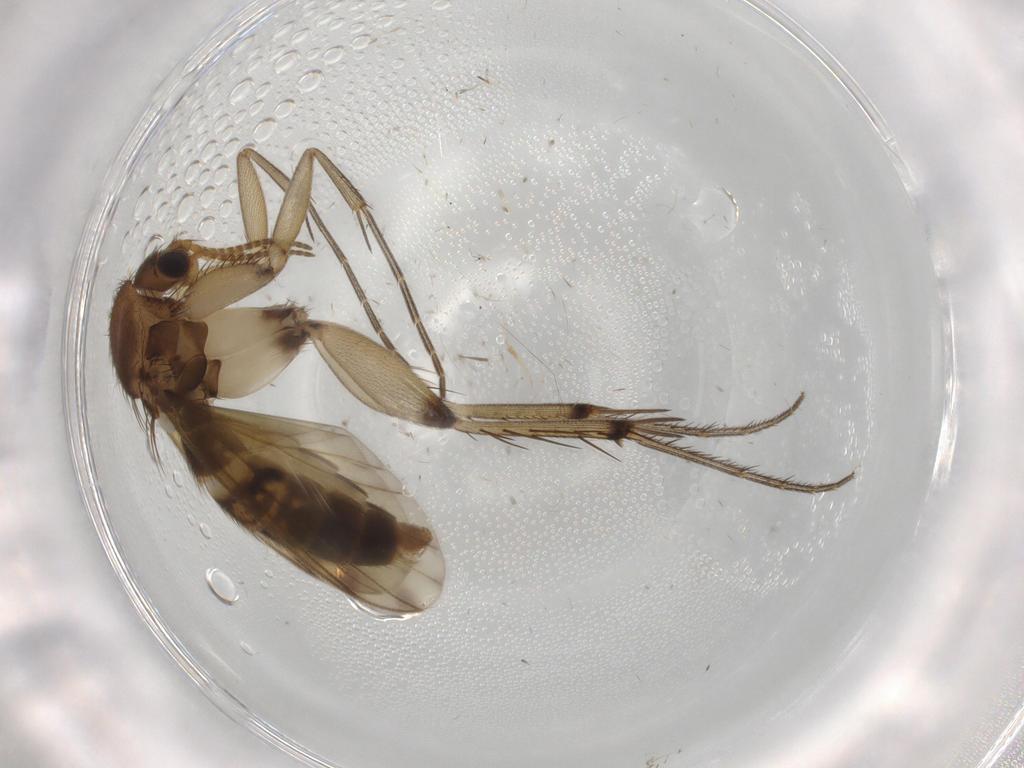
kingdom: Animalia
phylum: Arthropoda
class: Insecta
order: Diptera
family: Mycetophilidae
